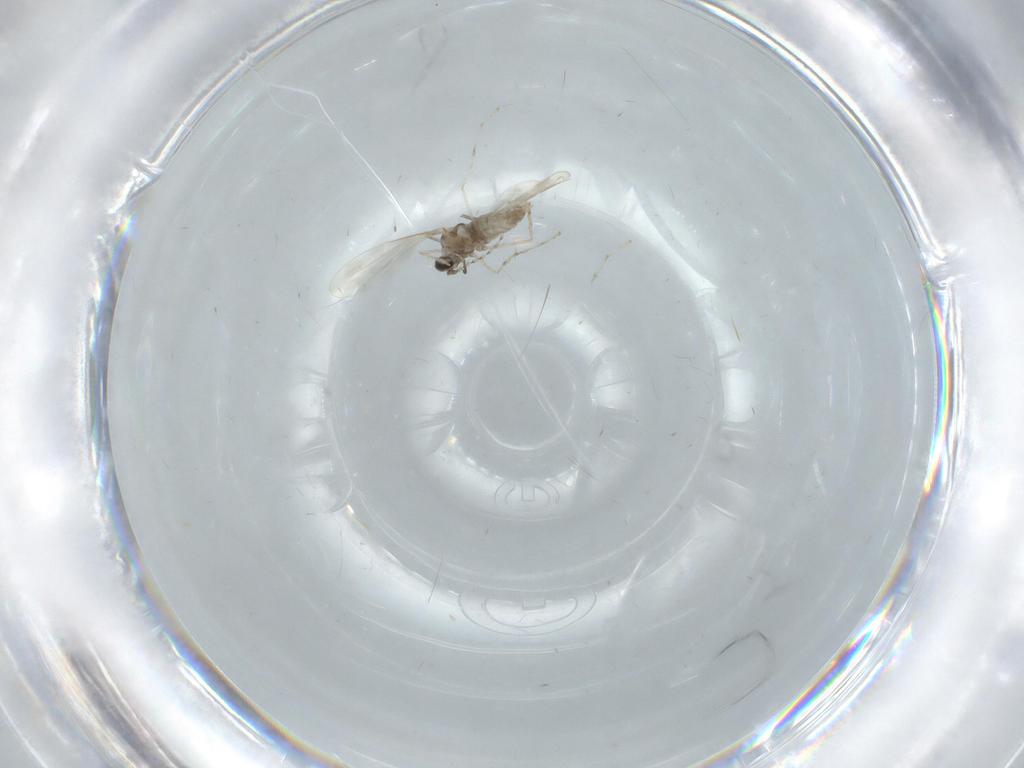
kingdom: Animalia
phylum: Arthropoda
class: Insecta
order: Diptera
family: Sciaridae
